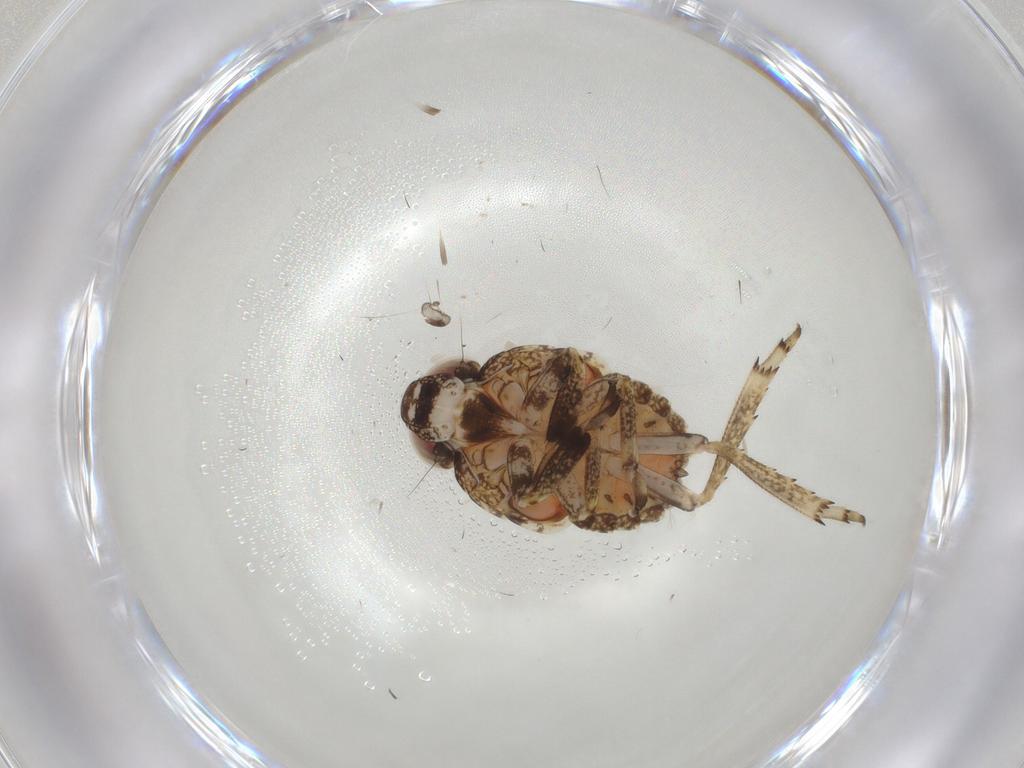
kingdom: Animalia
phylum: Arthropoda
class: Insecta
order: Hemiptera
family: Issidae
